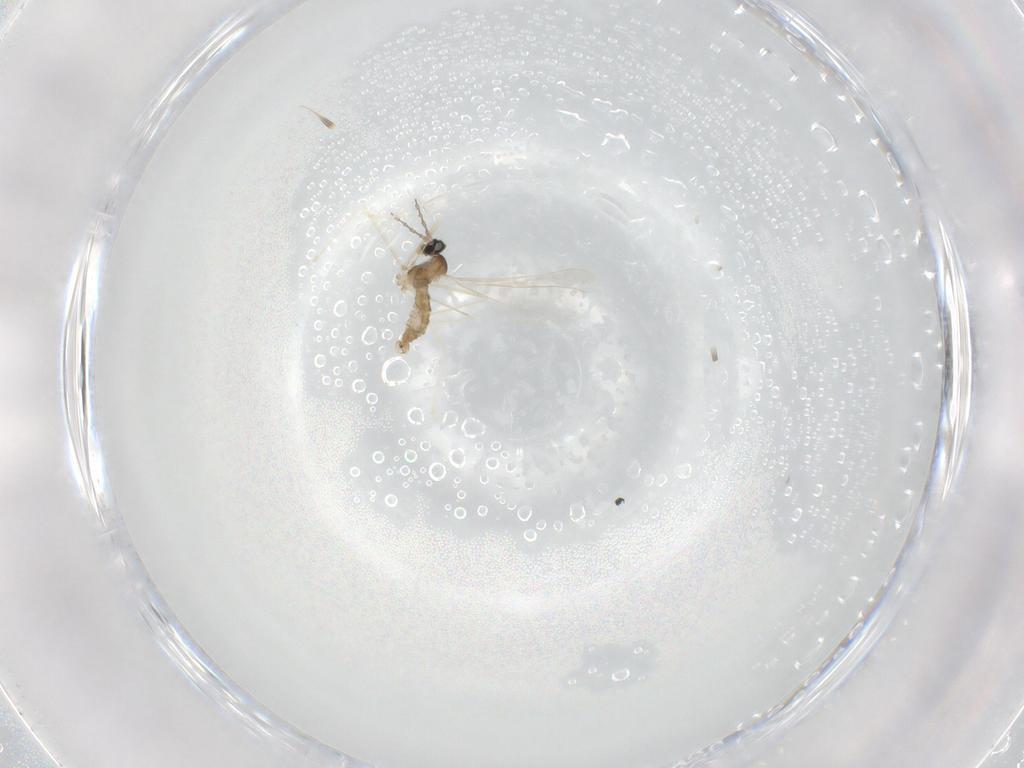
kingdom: Animalia
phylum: Arthropoda
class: Insecta
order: Diptera
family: Cecidomyiidae
